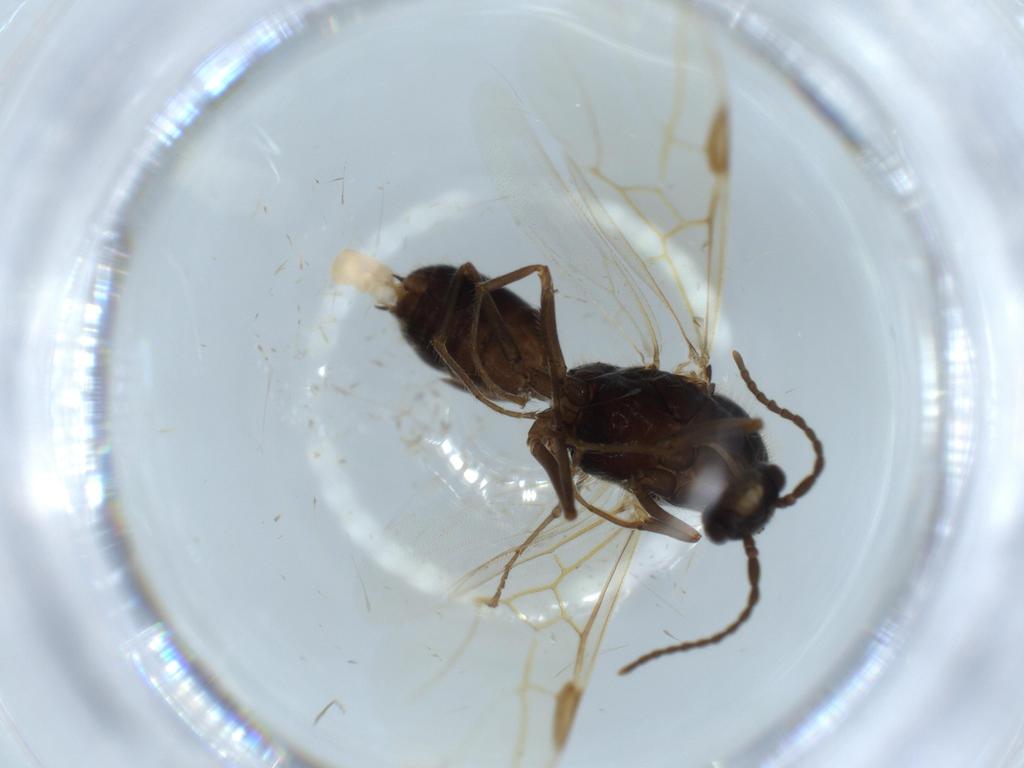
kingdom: Animalia
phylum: Arthropoda
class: Insecta
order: Hymenoptera
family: Formicidae
